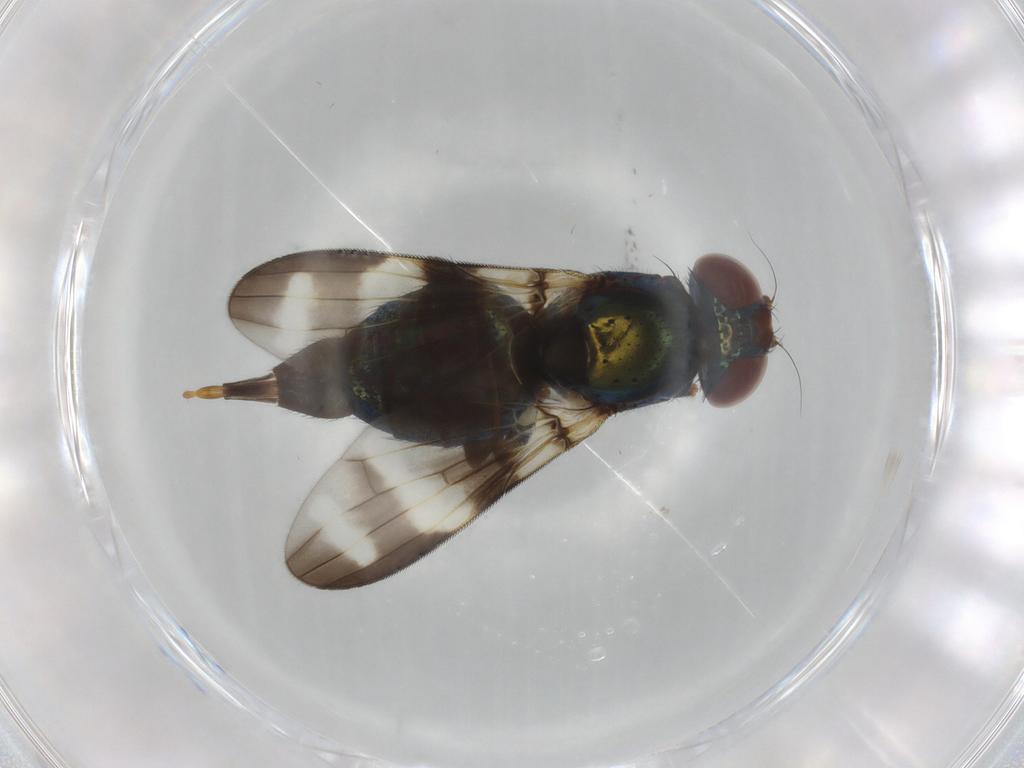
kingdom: Animalia
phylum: Arthropoda
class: Insecta
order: Diptera
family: Ulidiidae
